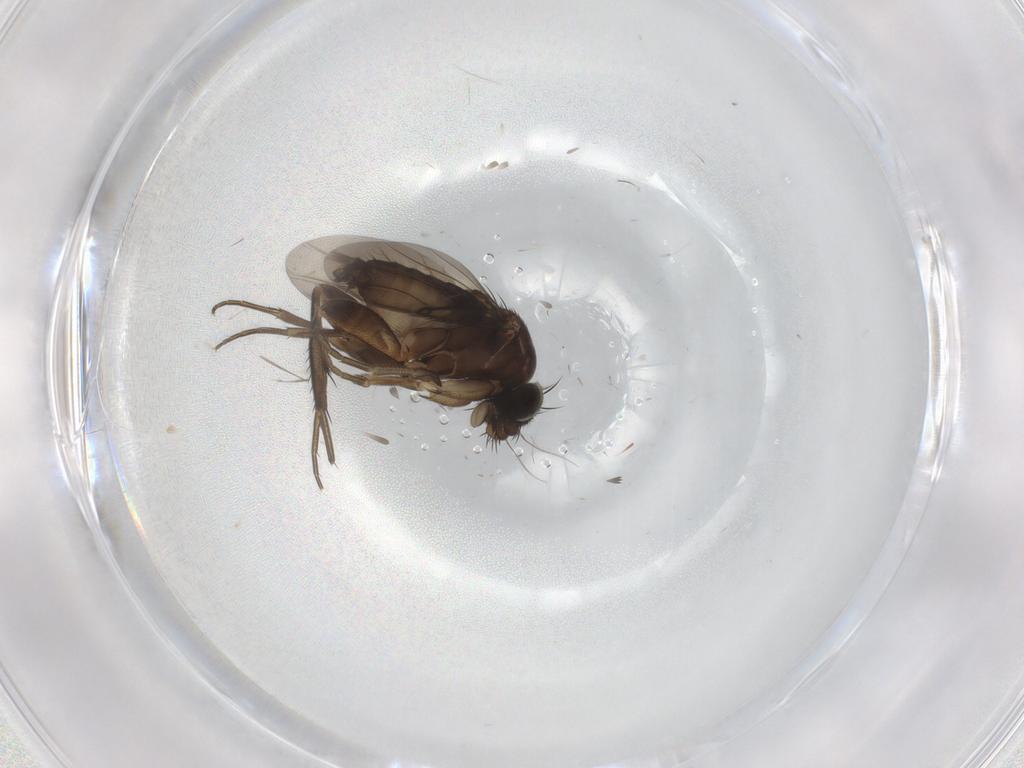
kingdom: Animalia
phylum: Arthropoda
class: Insecta
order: Diptera
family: Phoridae
